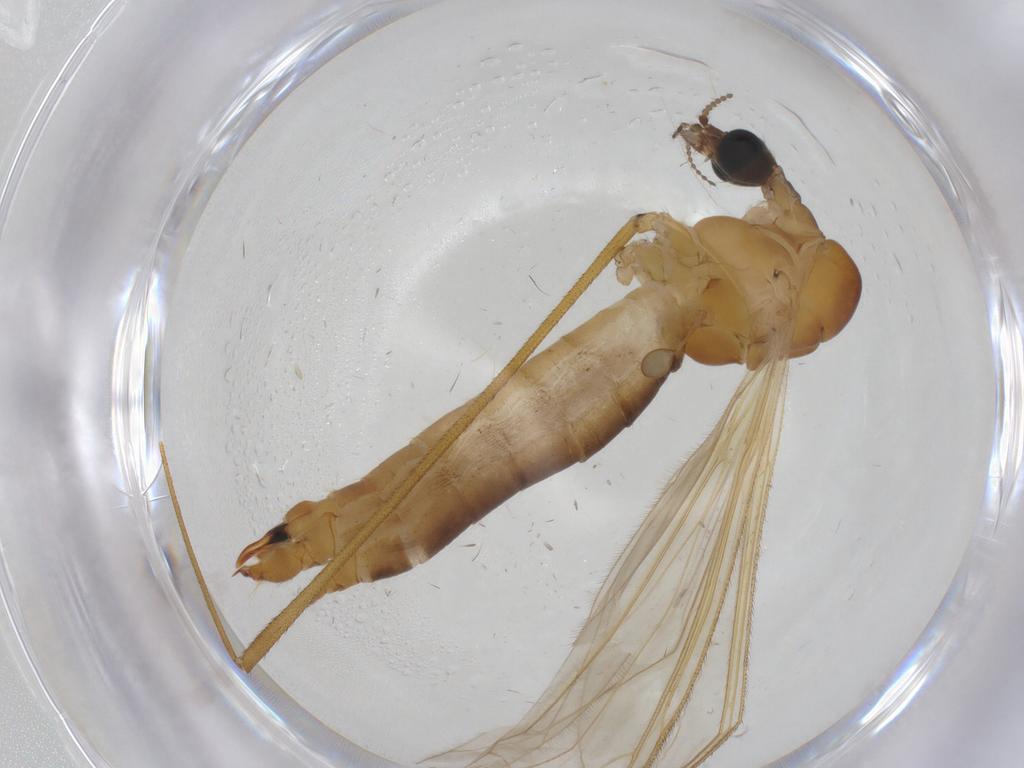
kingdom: Animalia
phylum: Arthropoda
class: Insecta
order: Diptera
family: Dolichopodidae
